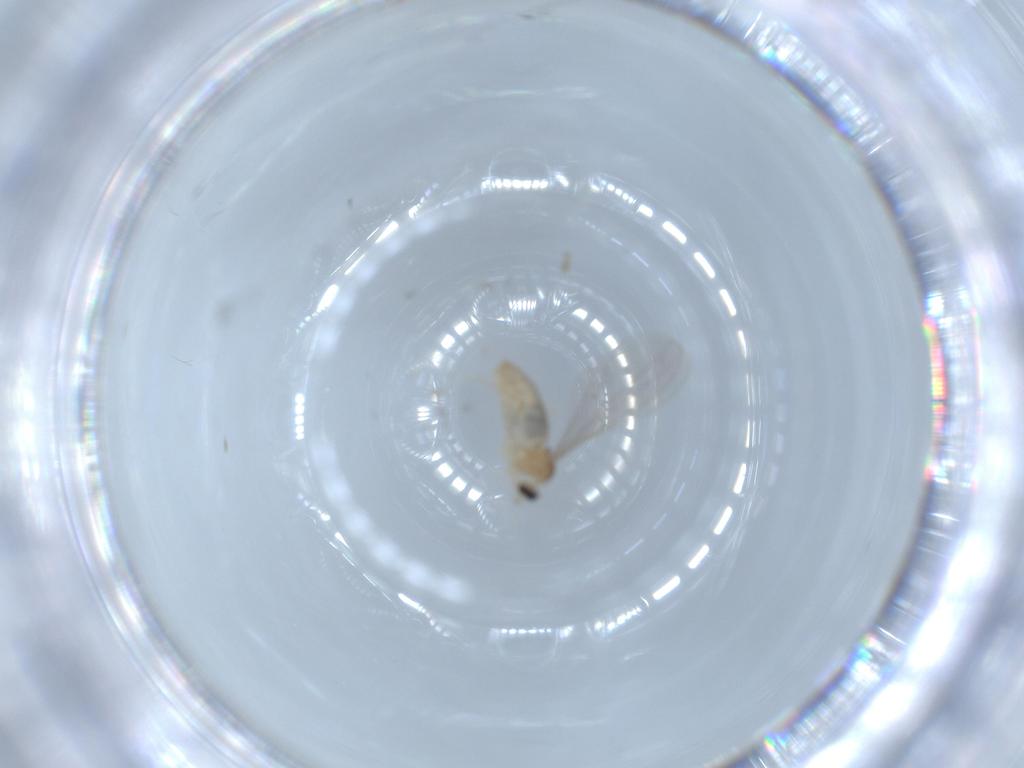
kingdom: Animalia
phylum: Arthropoda
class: Insecta
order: Diptera
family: Cecidomyiidae
